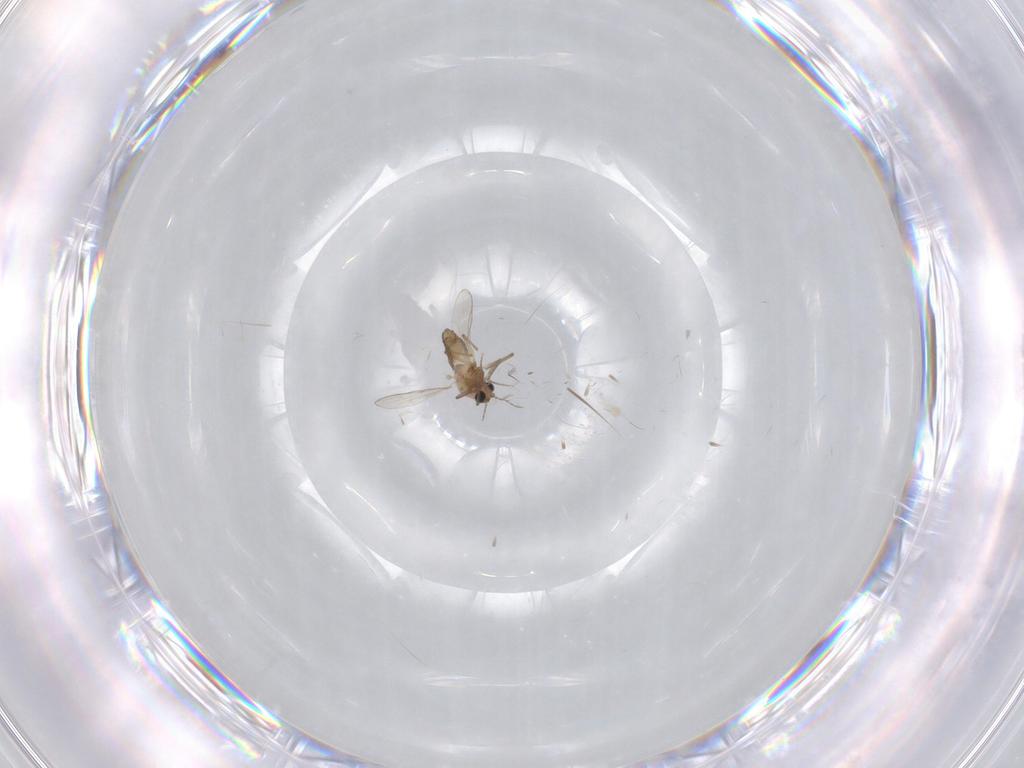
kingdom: Animalia
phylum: Arthropoda
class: Insecta
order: Diptera
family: Chironomidae
